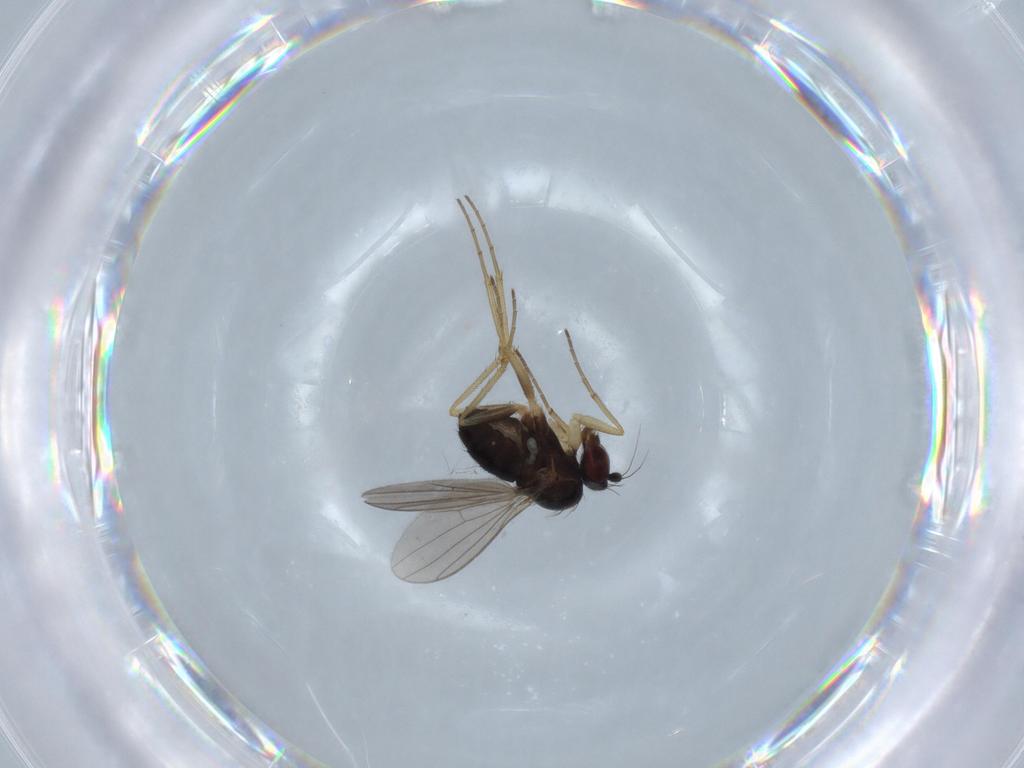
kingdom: Animalia
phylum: Arthropoda
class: Insecta
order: Diptera
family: Dolichopodidae
